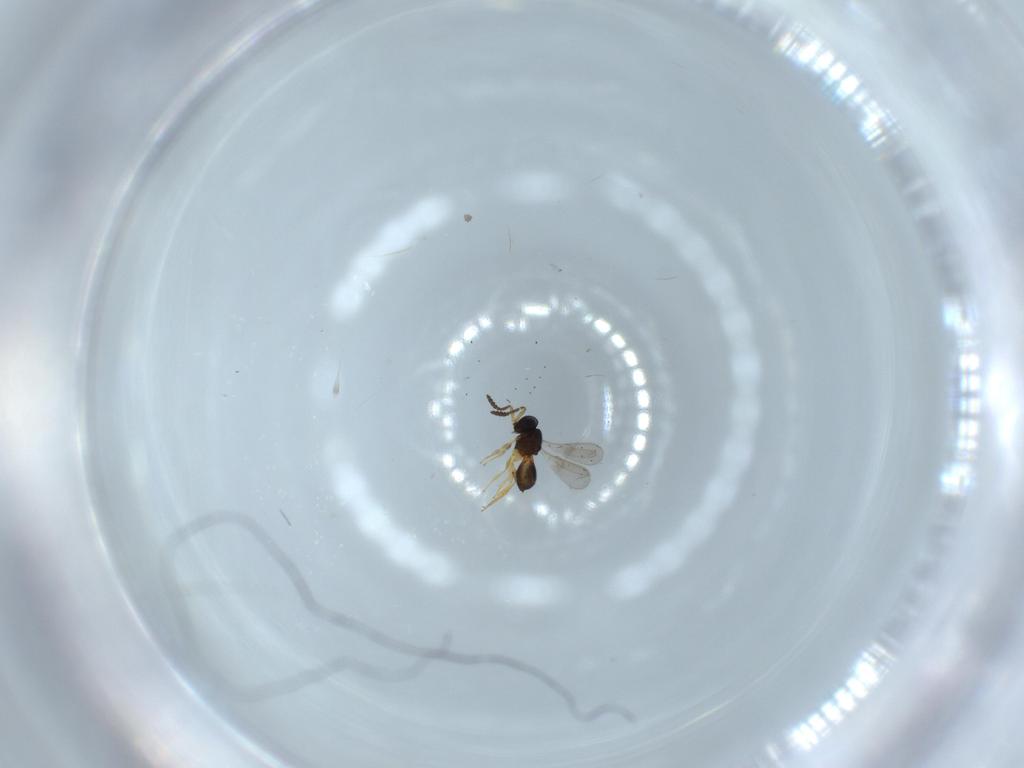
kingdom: Animalia
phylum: Arthropoda
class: Insecta
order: Hymenoptera
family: Scelionidae
